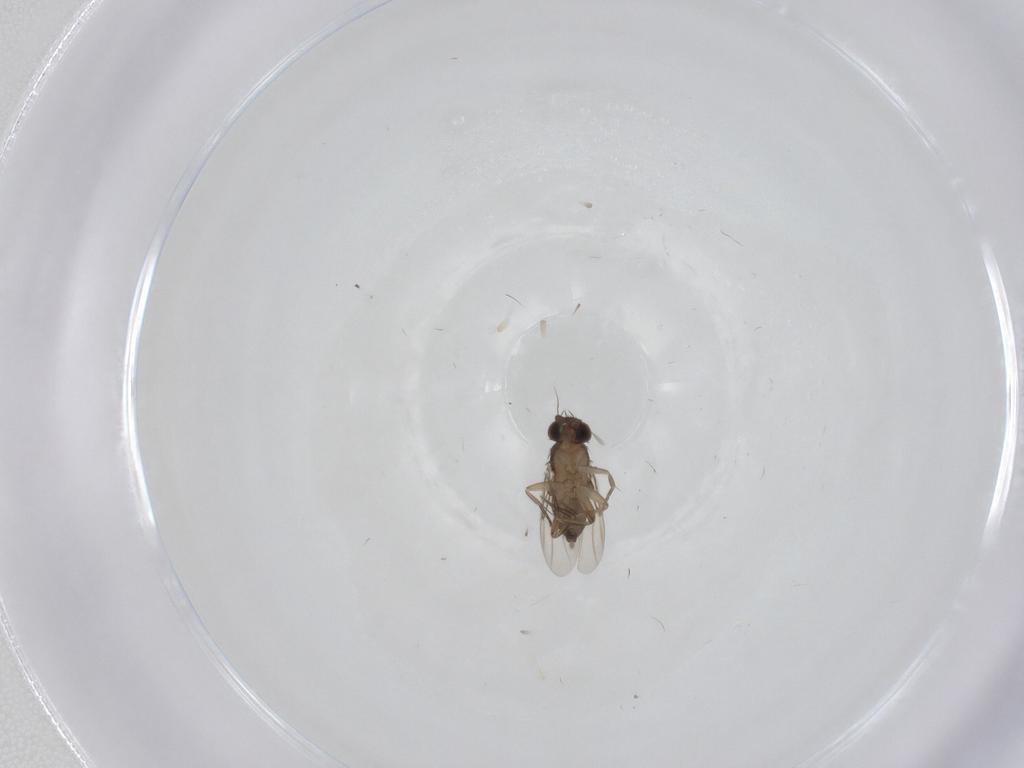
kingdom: Animalia
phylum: Arthropoda
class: Insecta
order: Diptera
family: Phoridae
